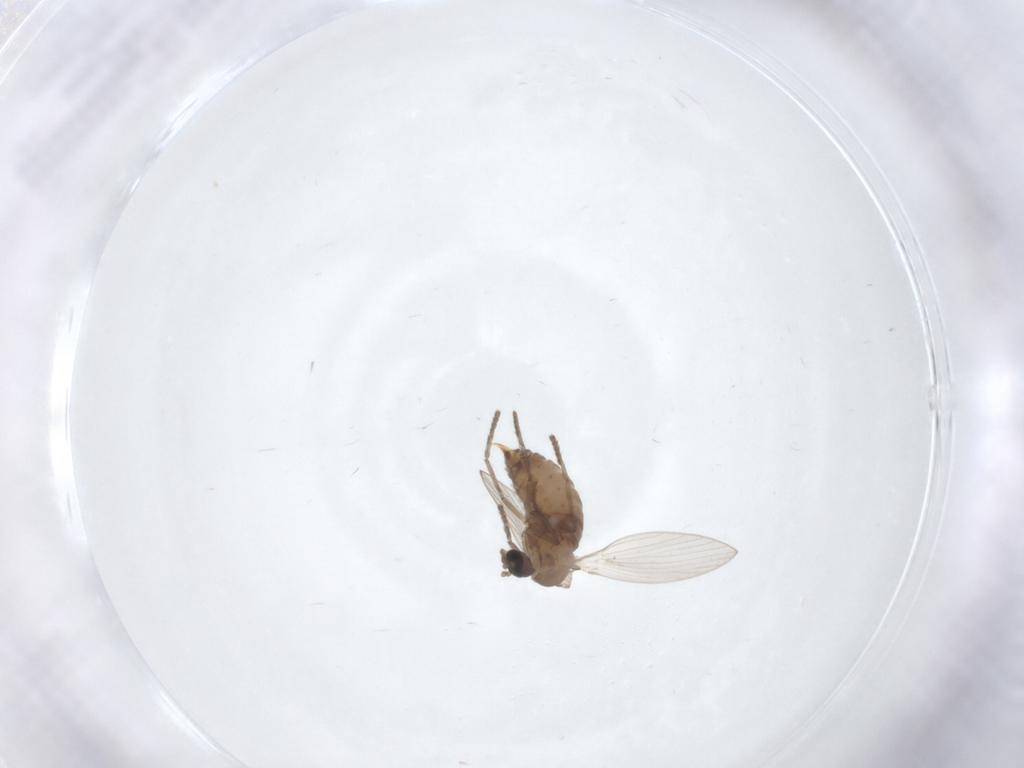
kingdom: Animalia
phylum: Arthropoda
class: Insecta
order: Diptera
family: Psychodidae
